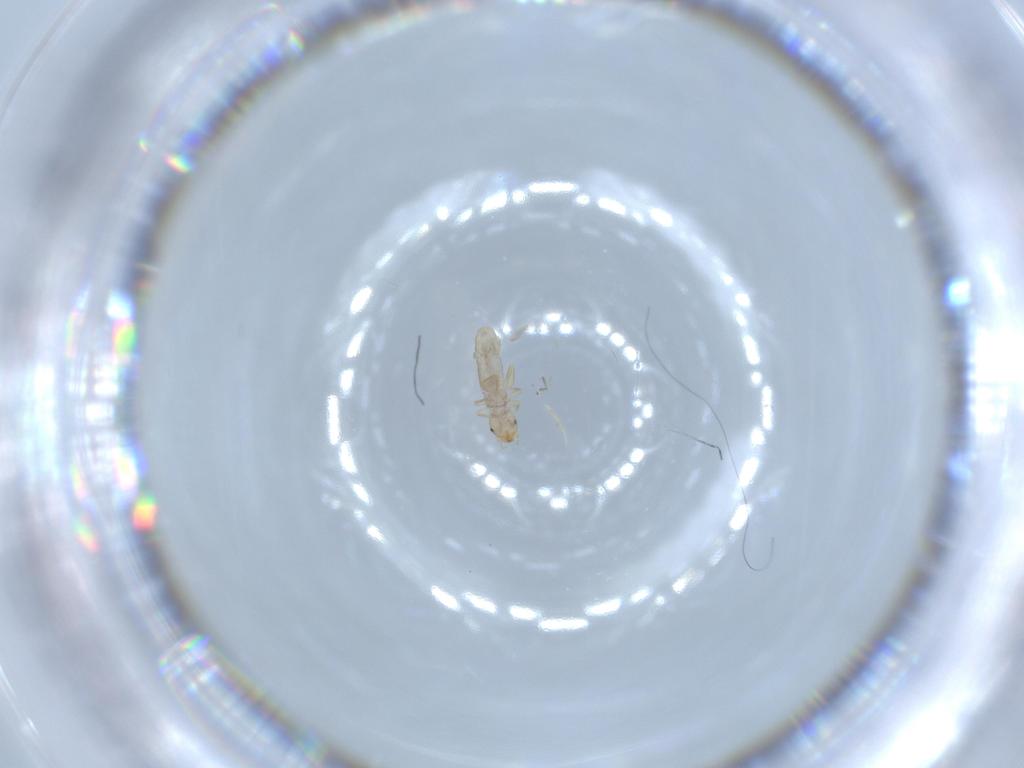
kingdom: Animalia
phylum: Arthropoda
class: Insecta
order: Psocodea
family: Liposcelididae
